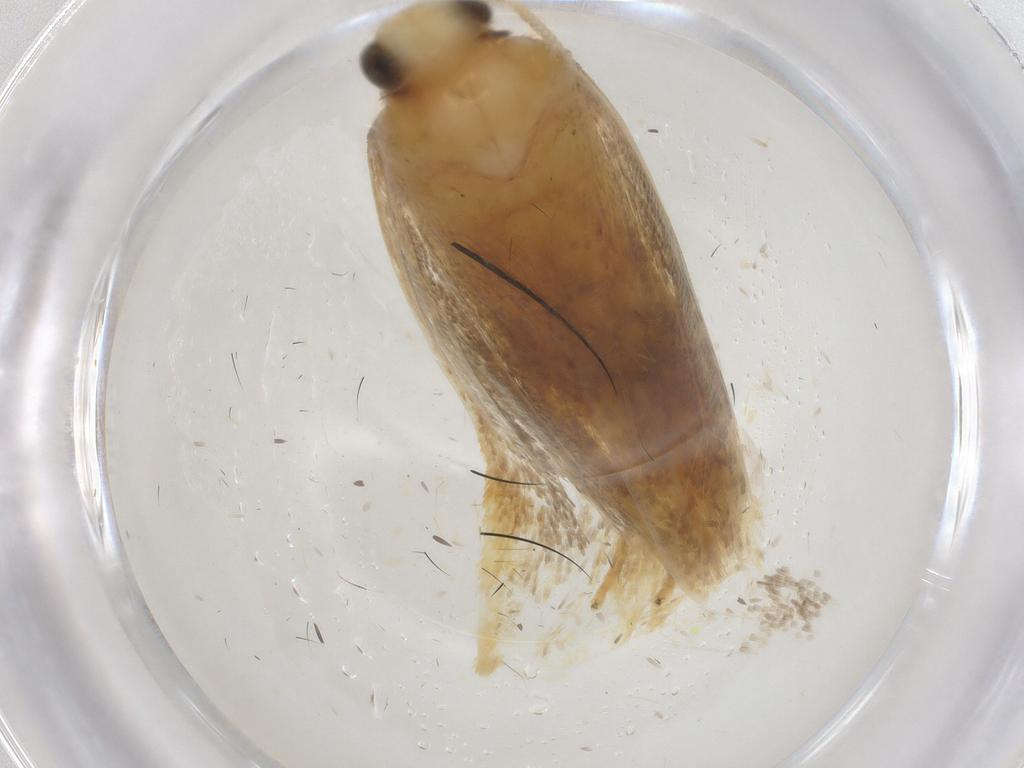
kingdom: Animalia
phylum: Arthropoda
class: Insecta
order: Lepidoptera
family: Lecithoceridae
